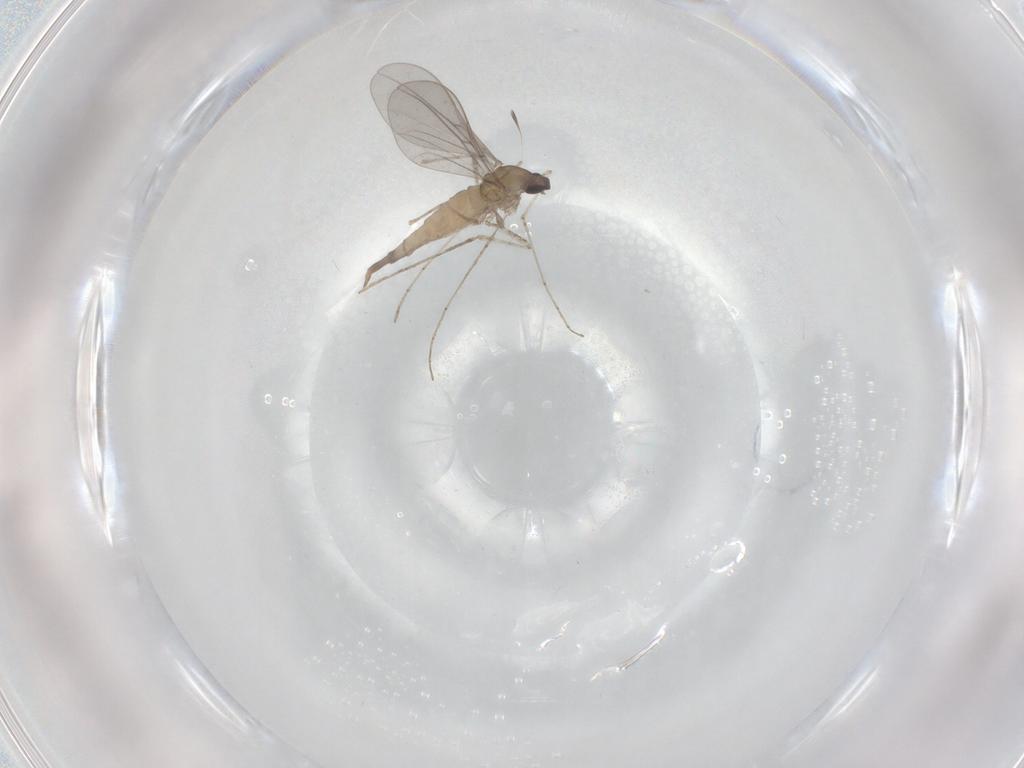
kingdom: Animalia
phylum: Arthropoda
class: Insecta
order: Diptera
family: Cecidomyiidae
